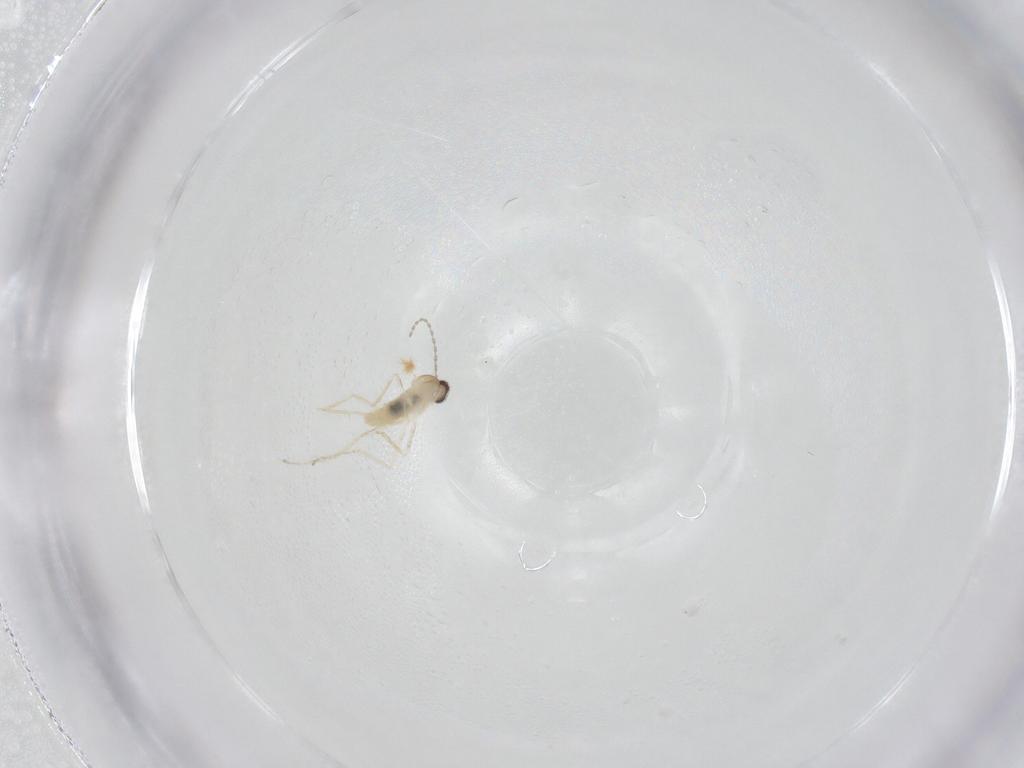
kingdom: Animalia
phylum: Arthropoda
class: Insecta
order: Diptera
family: Cecidomyiidae
